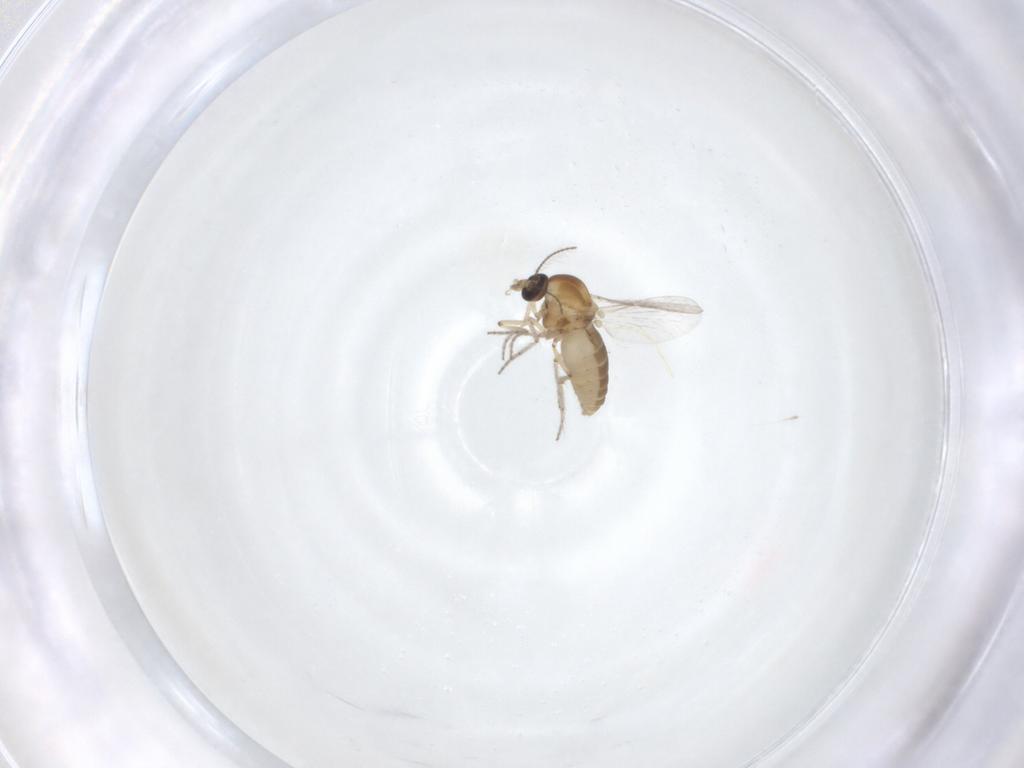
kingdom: Animalia
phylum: Arthropoda
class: Insecta
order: Diptera
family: Ceratopogonidae
